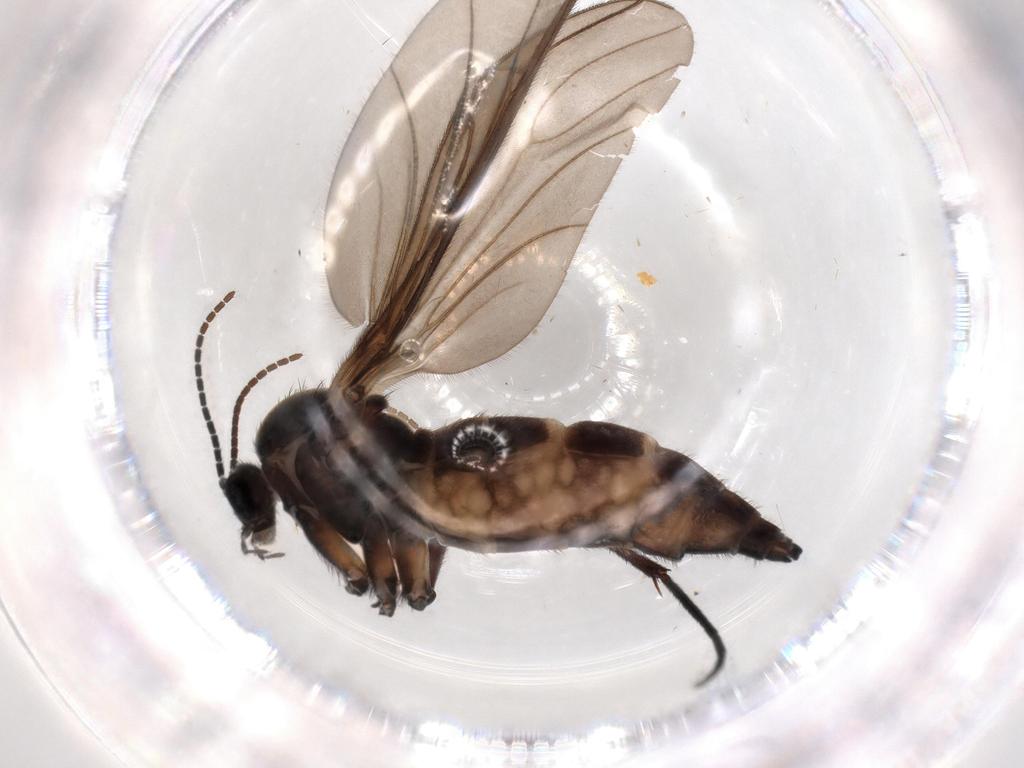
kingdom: Animalia
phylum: Arthropoda
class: Insecta
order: Diptera
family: Sciaridae
